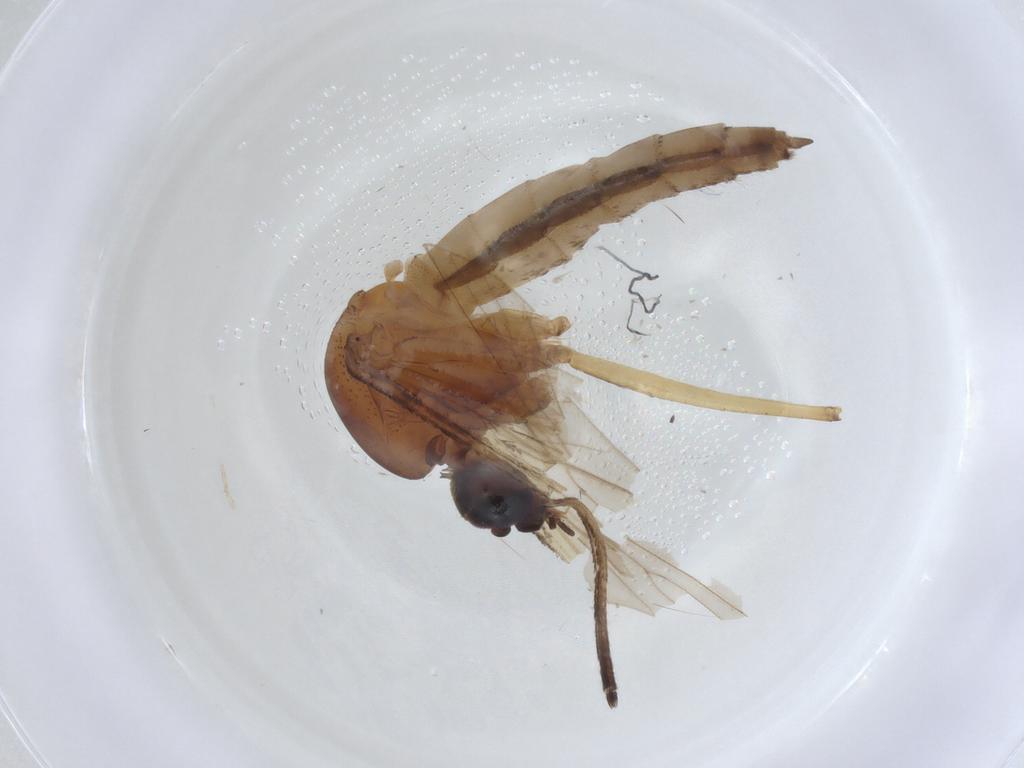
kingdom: Animalia
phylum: Arthropoda
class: Insecta
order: Diptera
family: Culicidae
